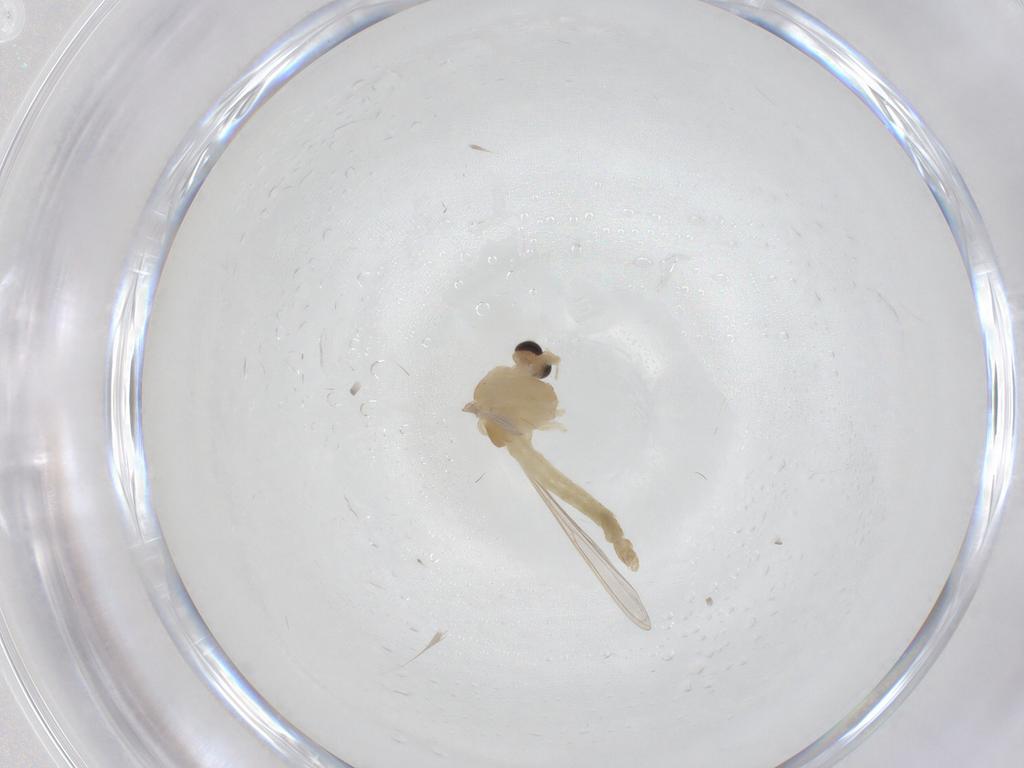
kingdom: Animalia
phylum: Arthropoda
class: Insecta
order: Diptera
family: Chironomidae
